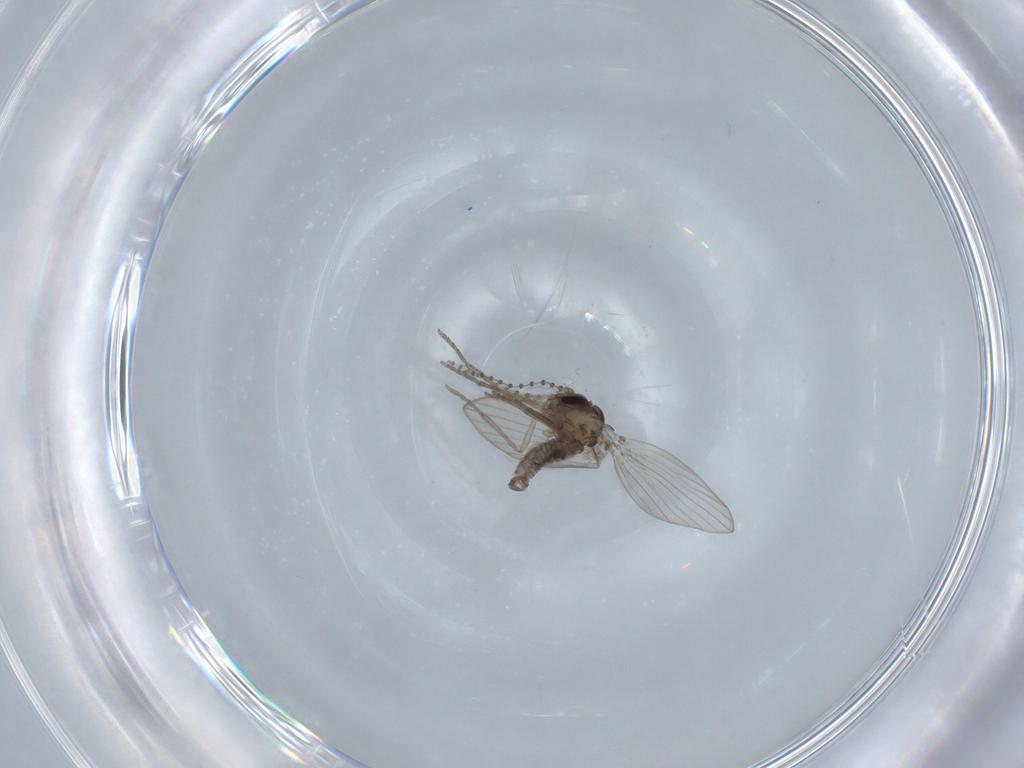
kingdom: Animalia
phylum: Arthropoda
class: Insecta
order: Diptera
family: Psychodidae
